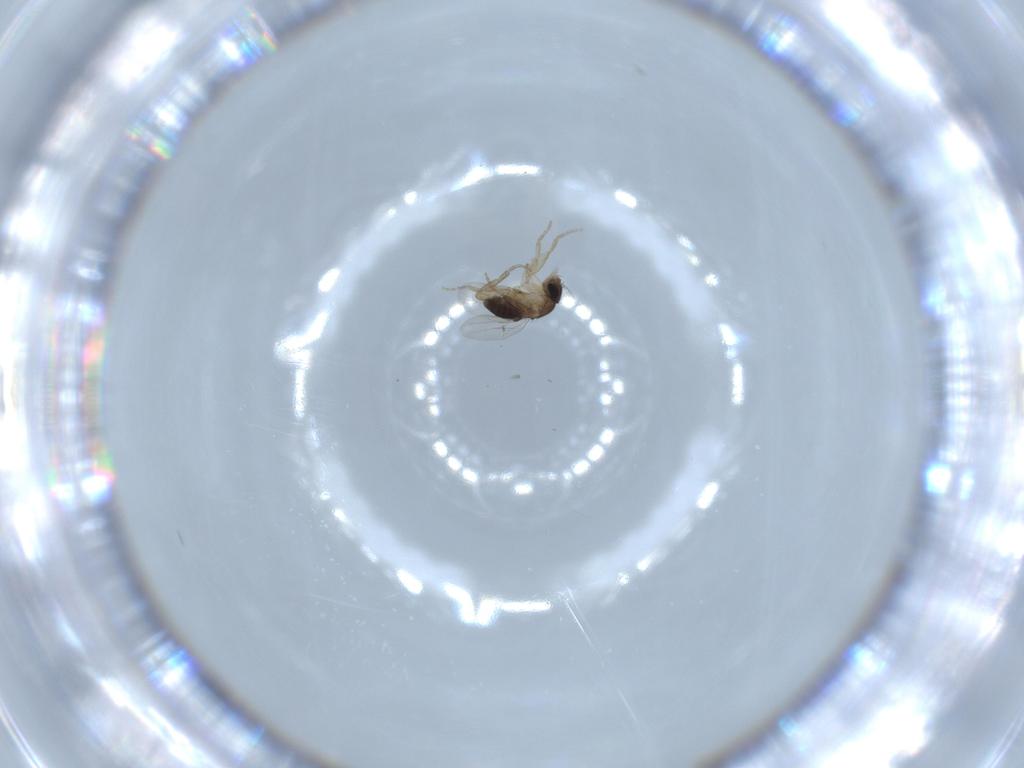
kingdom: Animalia
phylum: Arthropoda
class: Insecta
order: Diptera
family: Phoridae
